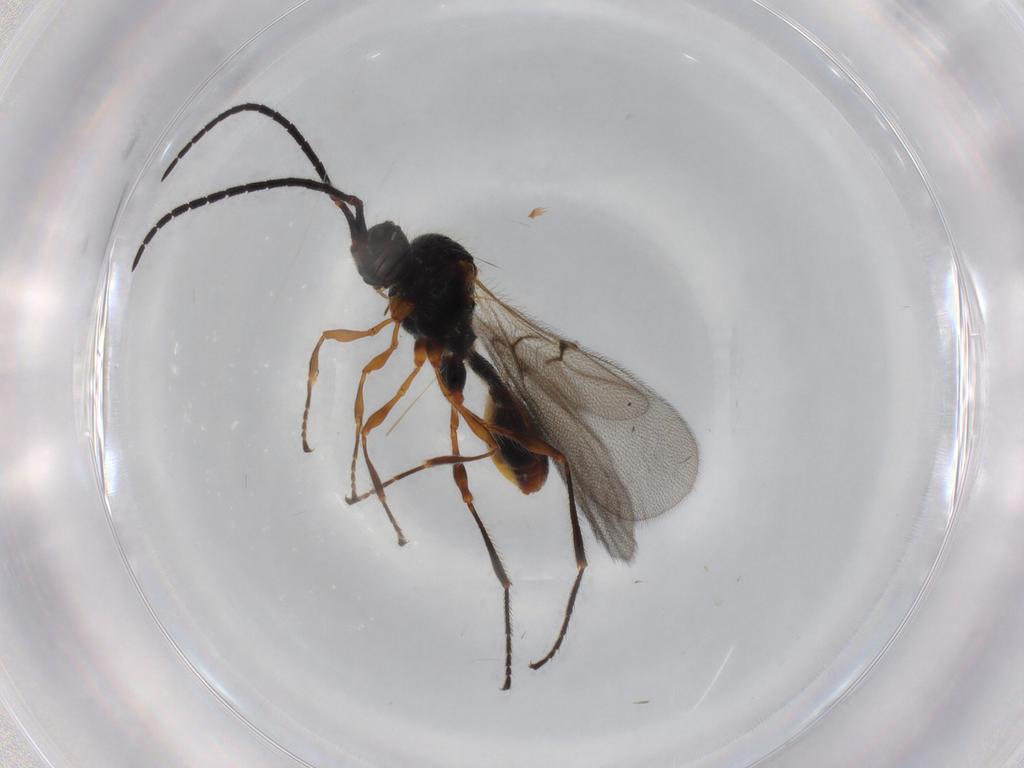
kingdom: Animalia
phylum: Arthropoda
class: Insecta
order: Hymenoptera
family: Diapriidae
